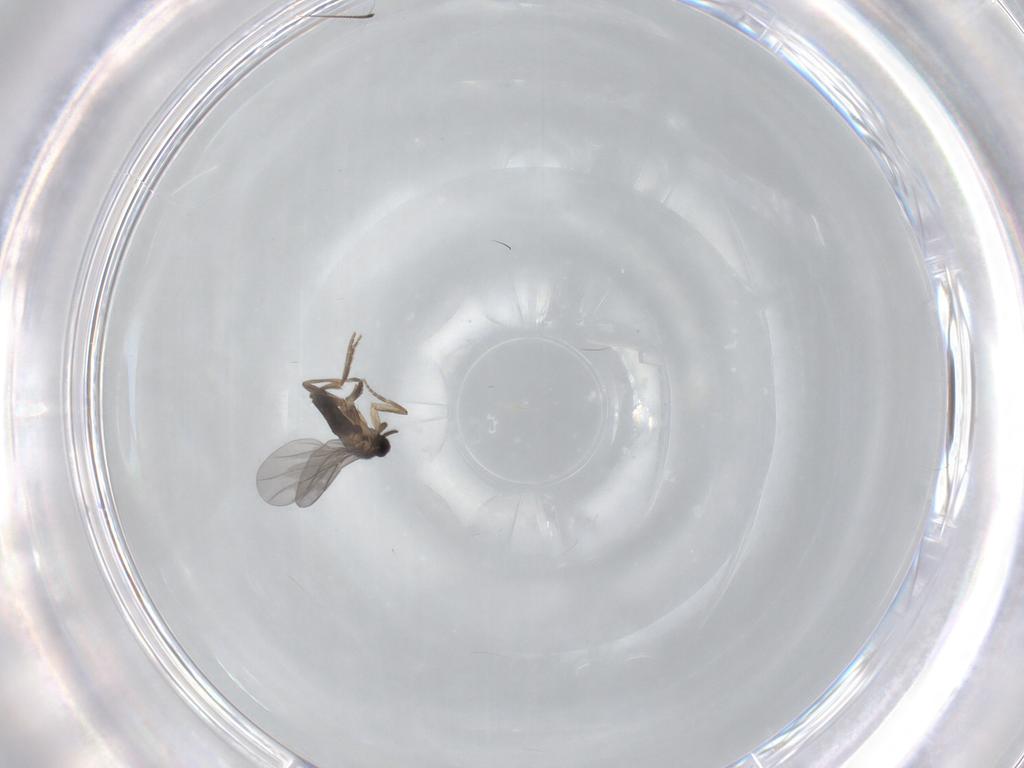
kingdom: Animalia
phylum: Arthropoda
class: Insecta
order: Diptera
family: Chironomidae
